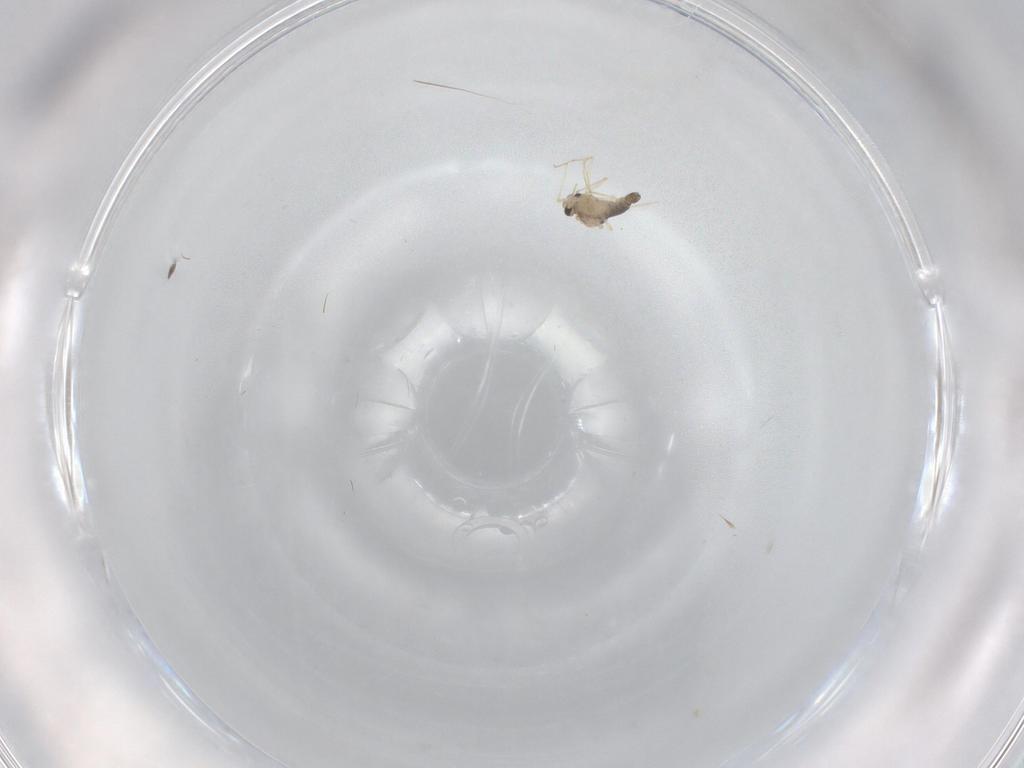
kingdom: Animalia
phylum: Arthropoda
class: Insecta
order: Diptera
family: Chironomidae
